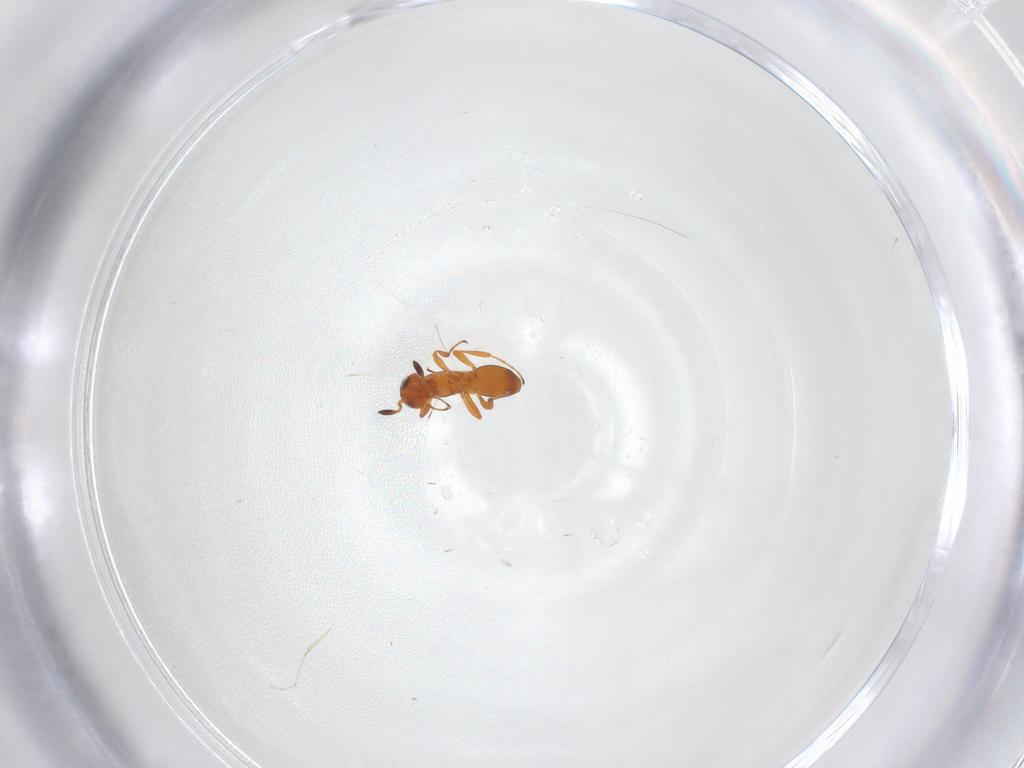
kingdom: Animalia
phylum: Arthropoda
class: Insecta
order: Hymenoptera
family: Platygastridae
